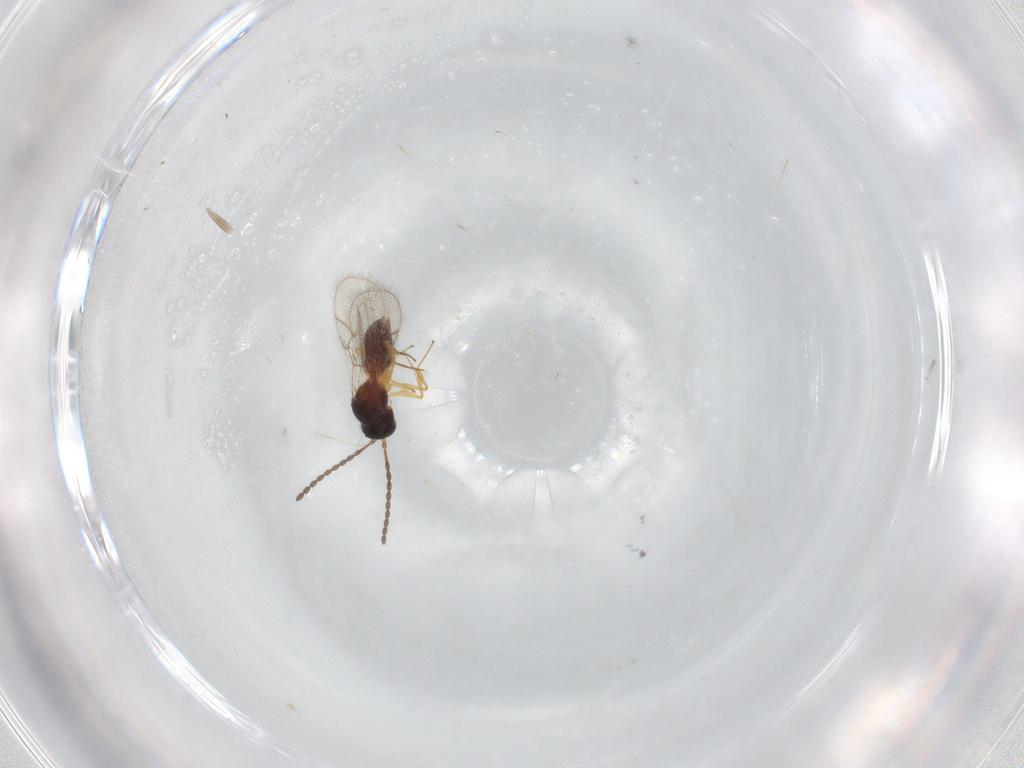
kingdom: Animalia
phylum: Arthropoda
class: Insecta
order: Hymenoptera
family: Figitidae
